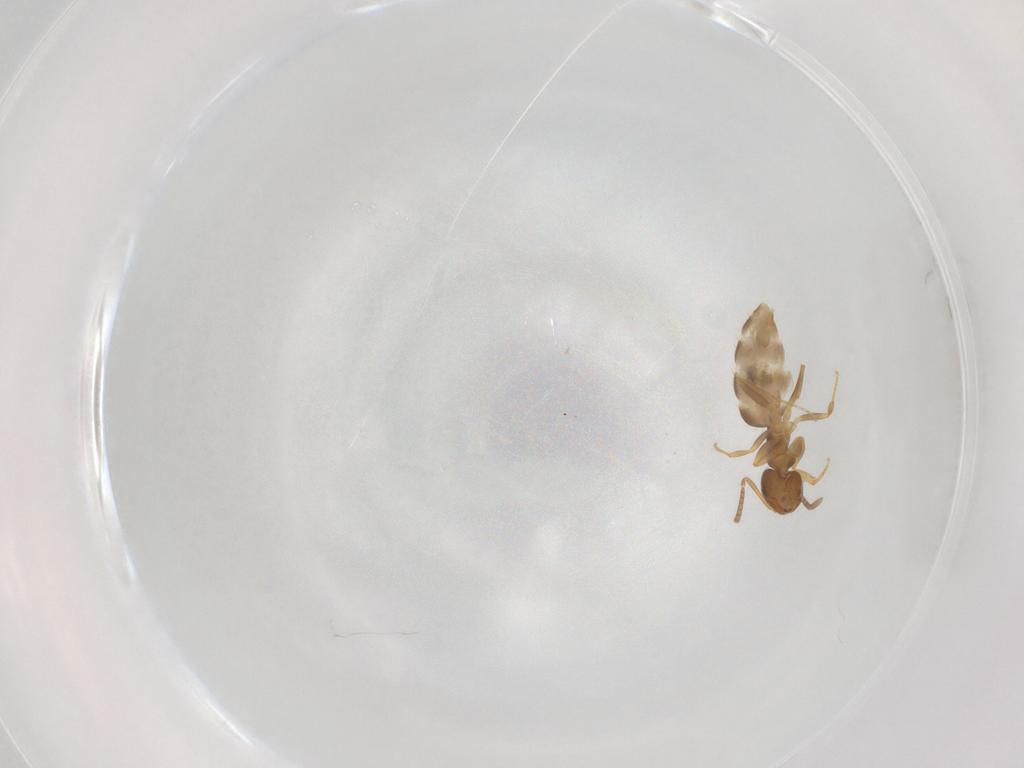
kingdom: Animalia
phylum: Arthropoda
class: Insecta
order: Hymenoptera
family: Formicidae
